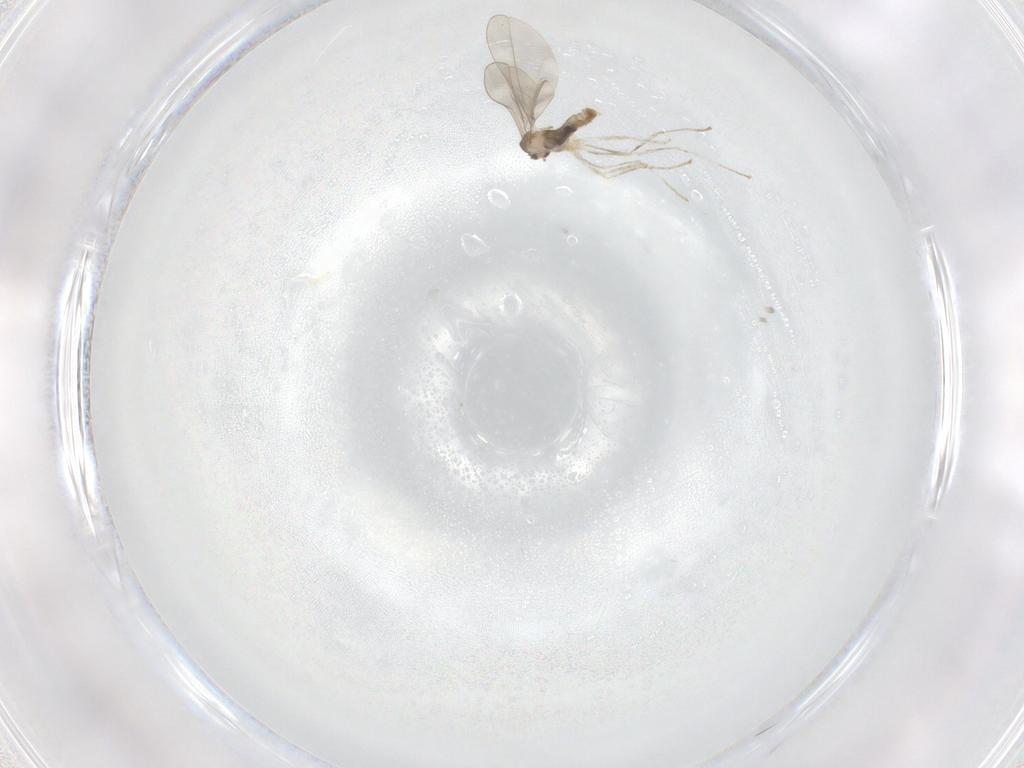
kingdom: Animalia
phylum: Arthropoda
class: Insecta
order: Diptera
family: Cecidomyiidae
